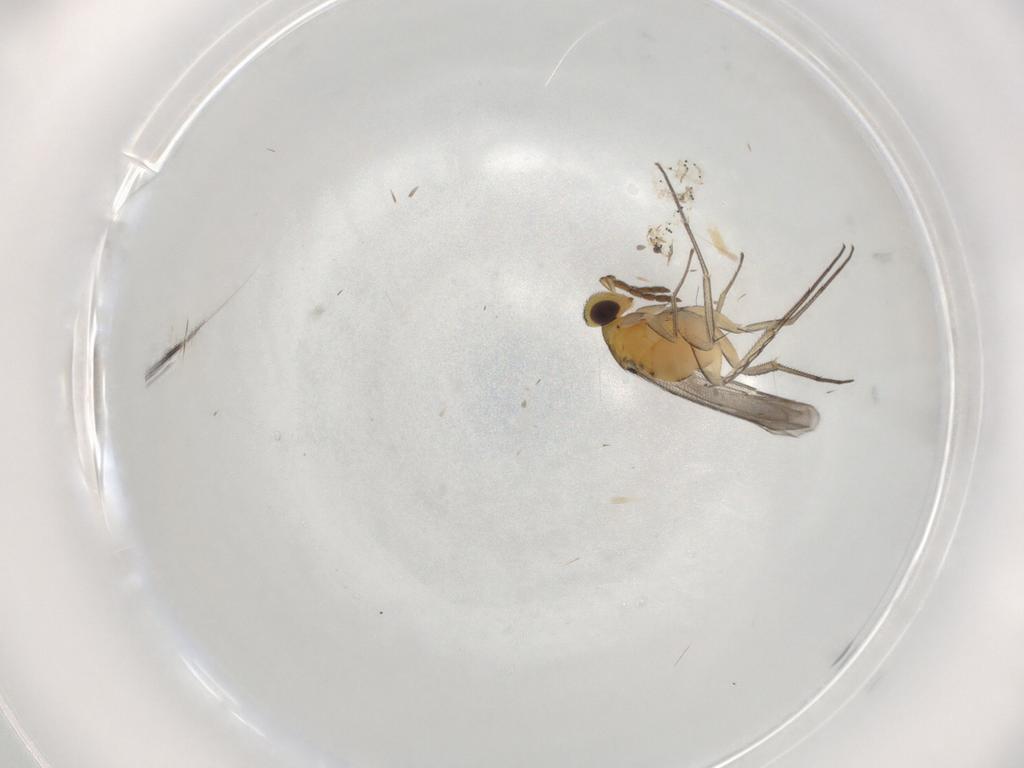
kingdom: Animalia
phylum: Arthropoda
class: Insecta
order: Hymenoptera
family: Eulophidae
